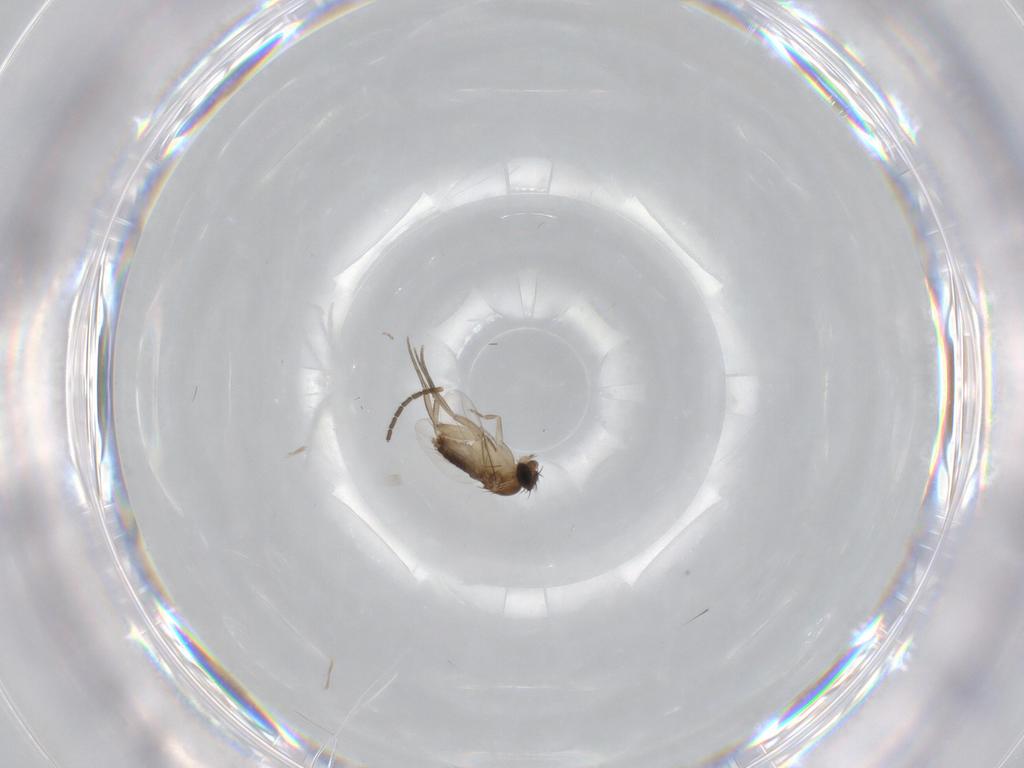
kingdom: Animalia
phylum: Arthropoda
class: Insecta
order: Diptera
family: Phoridae
